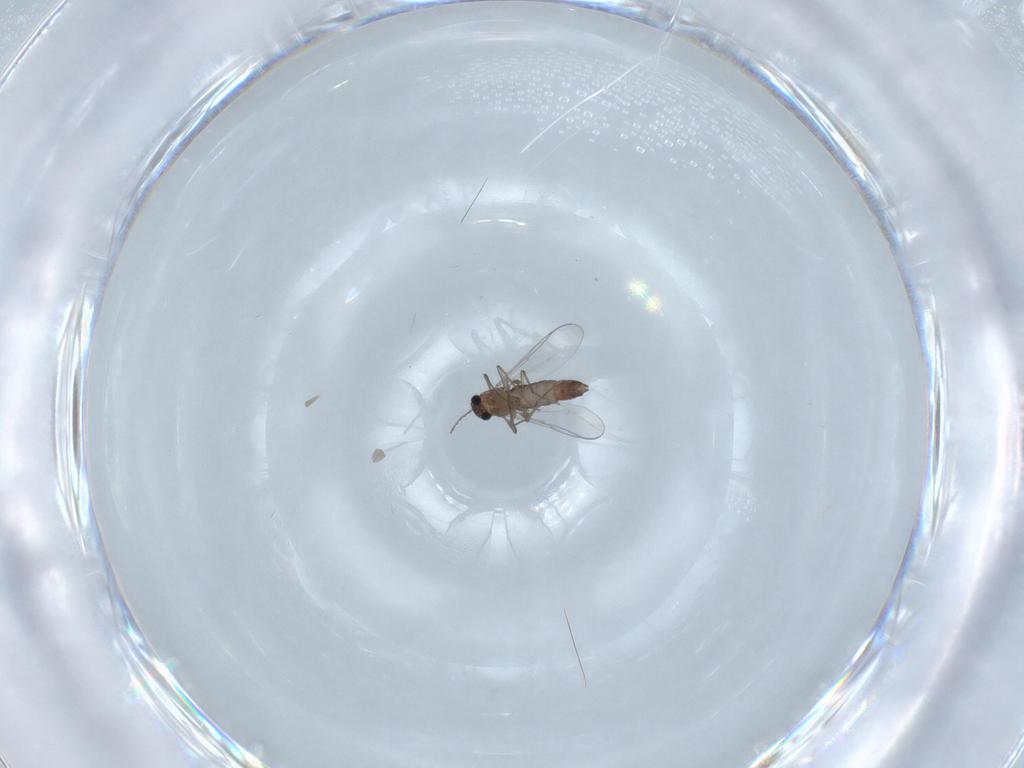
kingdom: Animalia
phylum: Arthropoda
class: Insecta
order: Diptera
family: Chironomidae
